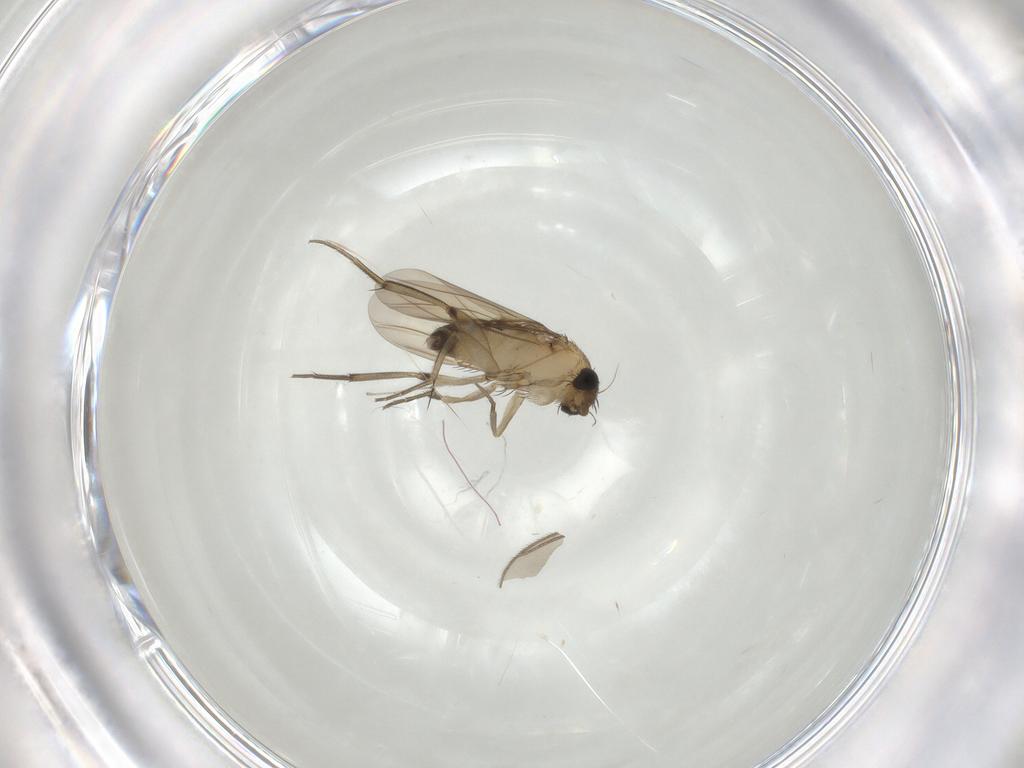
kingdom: Animalia
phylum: Arthropoda
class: Insecta
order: Diptera
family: Phoridae
